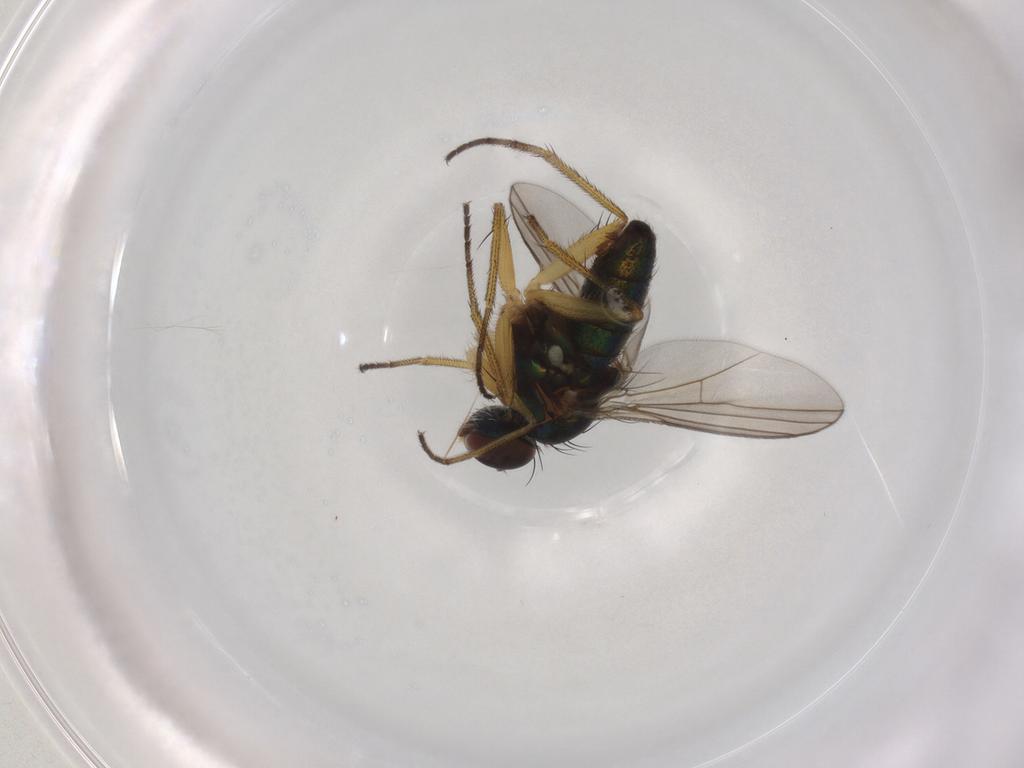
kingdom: Animalia
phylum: Arthropoda
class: Insecta
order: Diptera
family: Dolichopodidae
